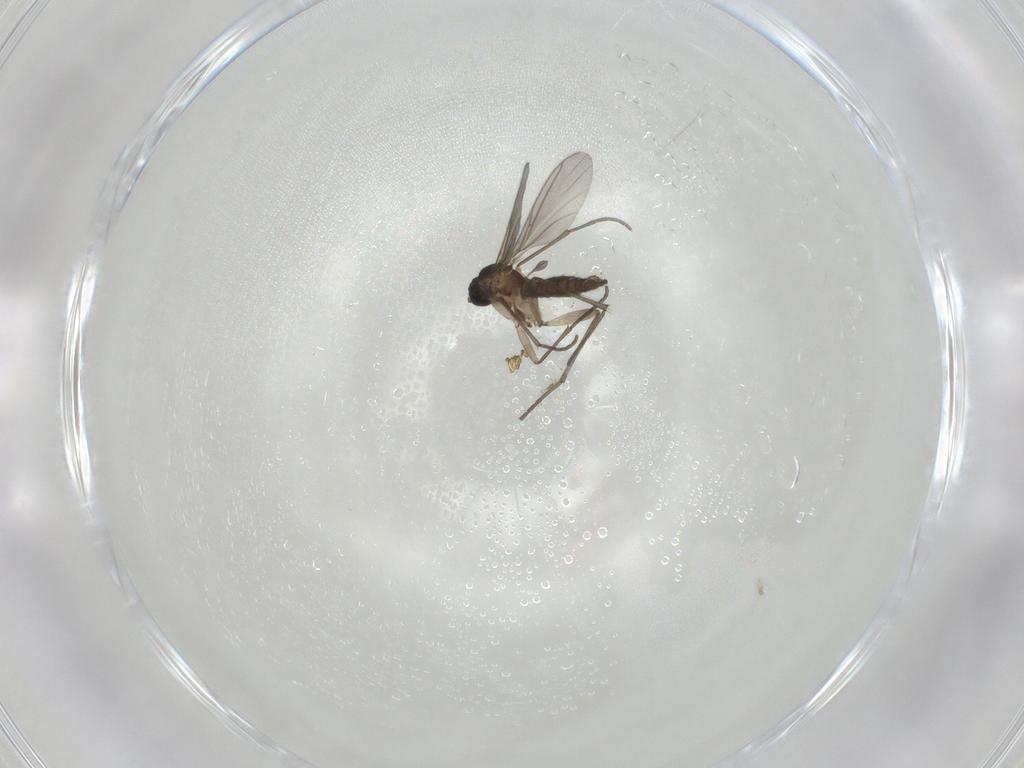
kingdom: Animalia
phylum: Arthropoda
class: Insecta
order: Diptera
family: Sciaridae
